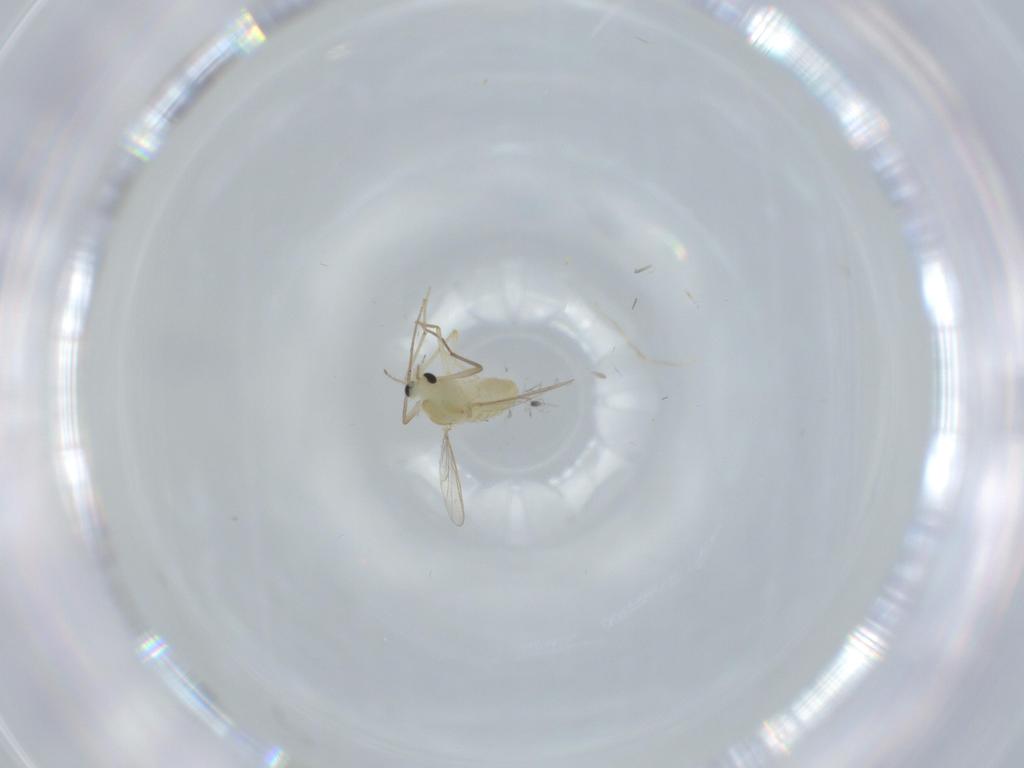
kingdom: Animalia
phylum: Arthropoda
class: Insecta
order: Diptera
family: Chironomidae
